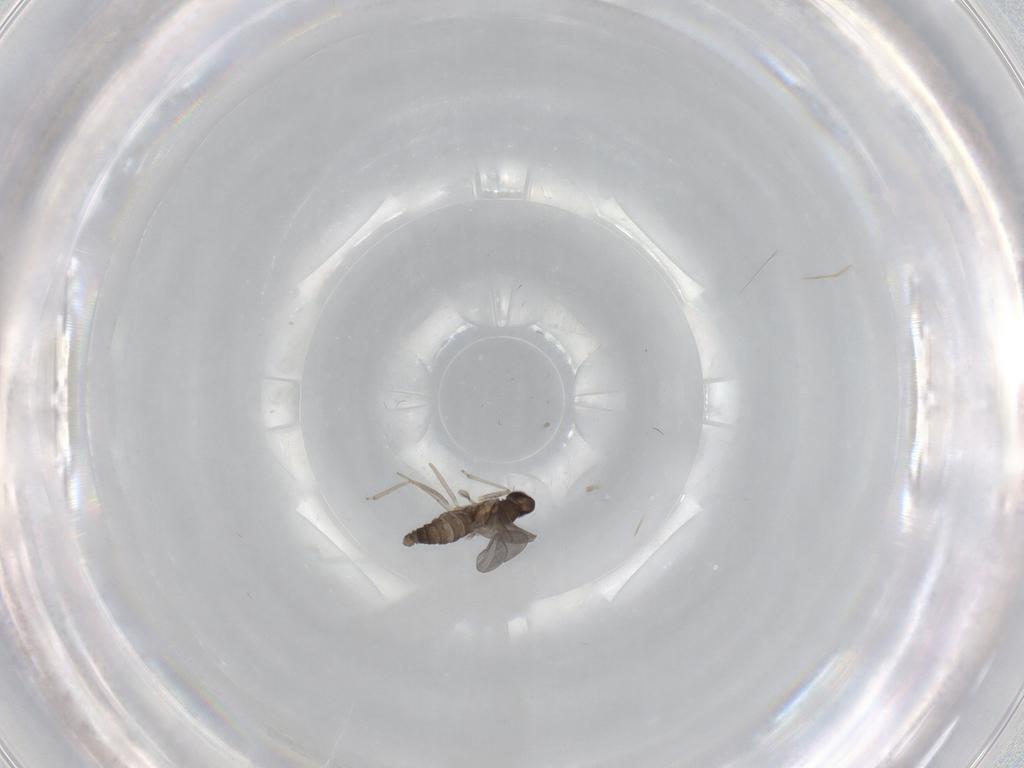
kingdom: Animalia
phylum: Arthropoda
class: Insecta
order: Diptera
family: Cecidomyiidae
